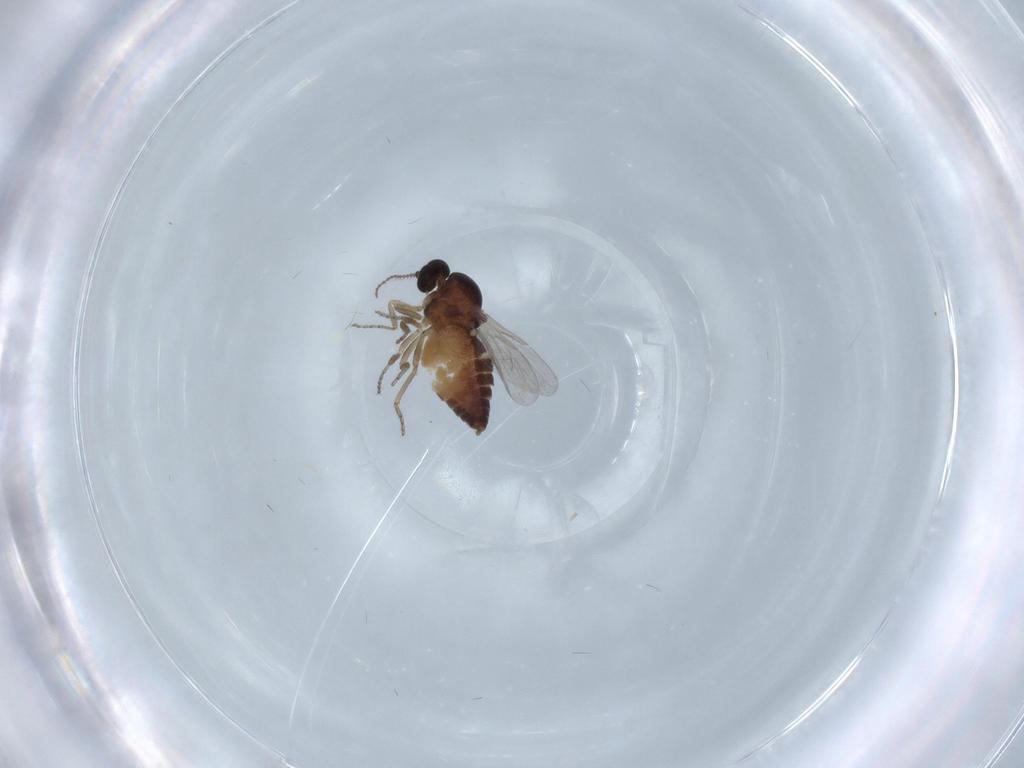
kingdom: Animalia
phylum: Arthropoda
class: Insecta
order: Diptera
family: Ceratopogonidae
